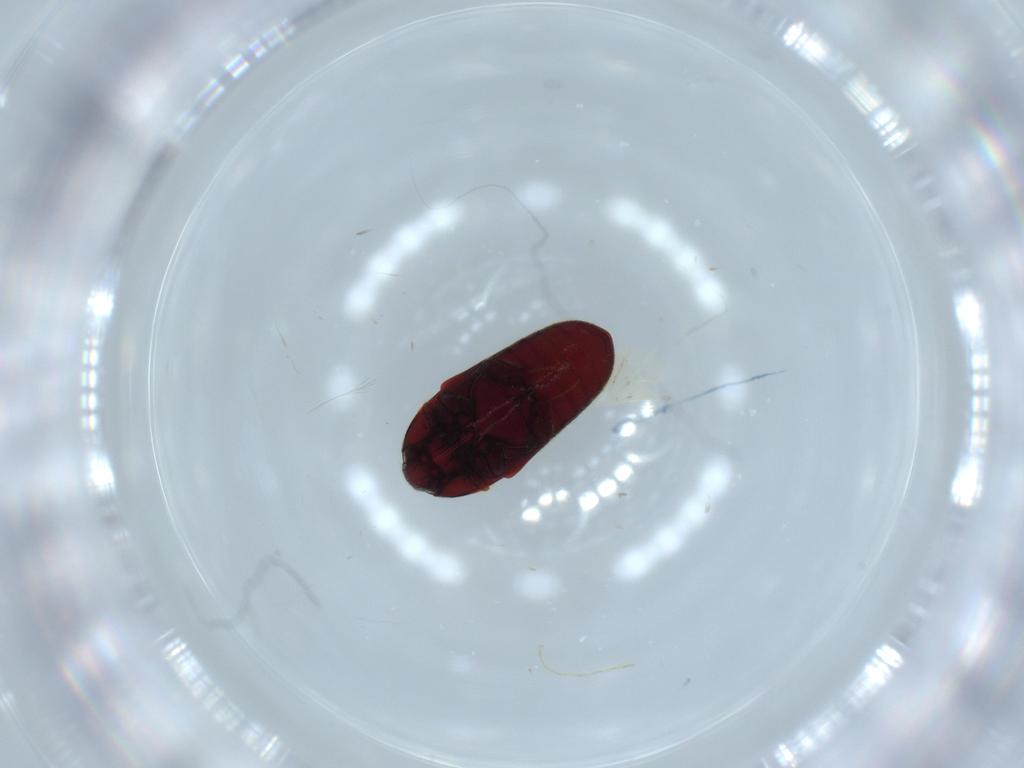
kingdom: Animalia
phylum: Arthropoda
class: Insecta
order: Coleoptera
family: Throscidae
